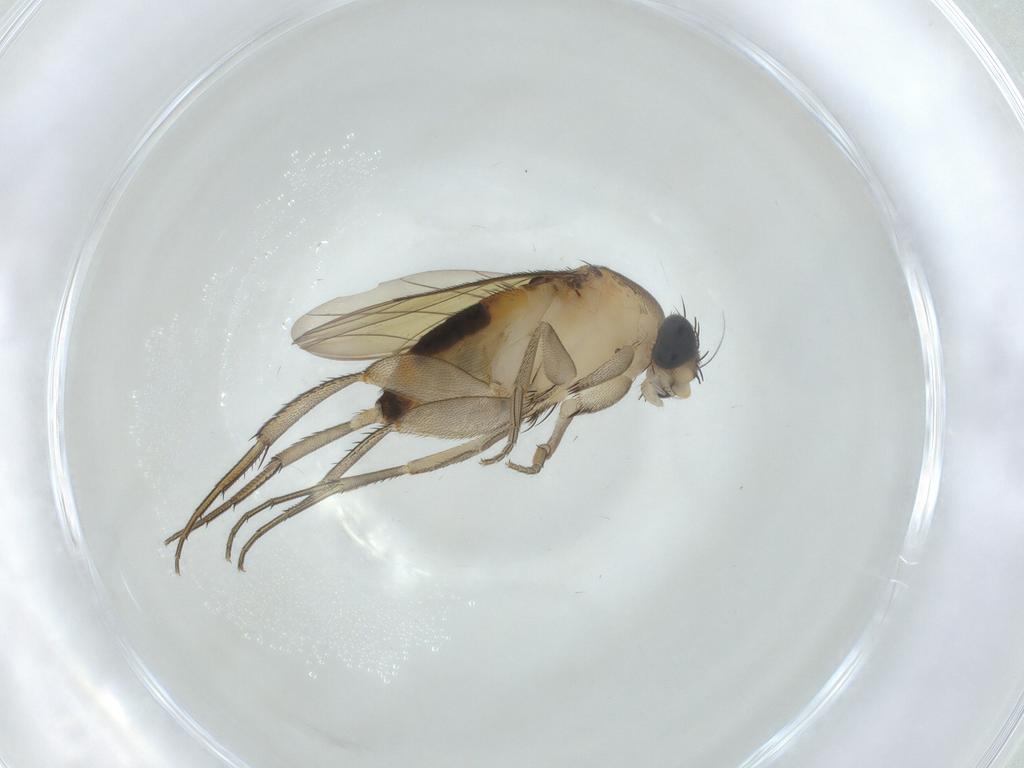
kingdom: Animalia
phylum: Arthropoda
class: Insecta
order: Diptera
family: Phoridae
